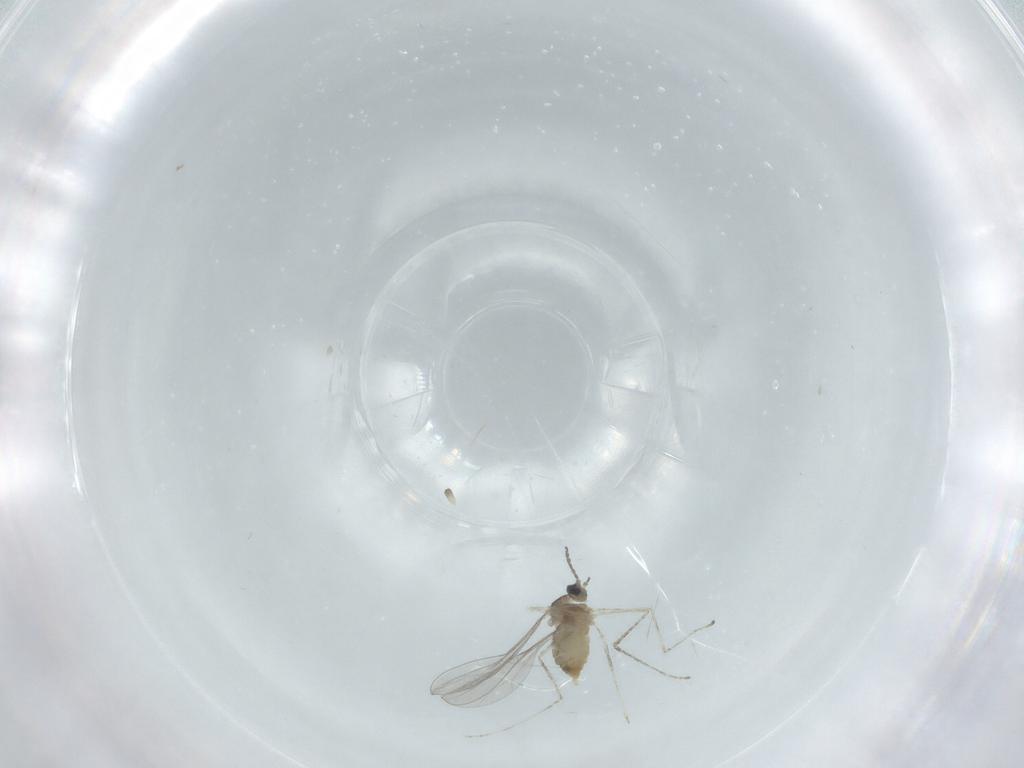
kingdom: Animalia
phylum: Arthropoda
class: Insecta
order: Diptera
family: Cecidomyiidae
